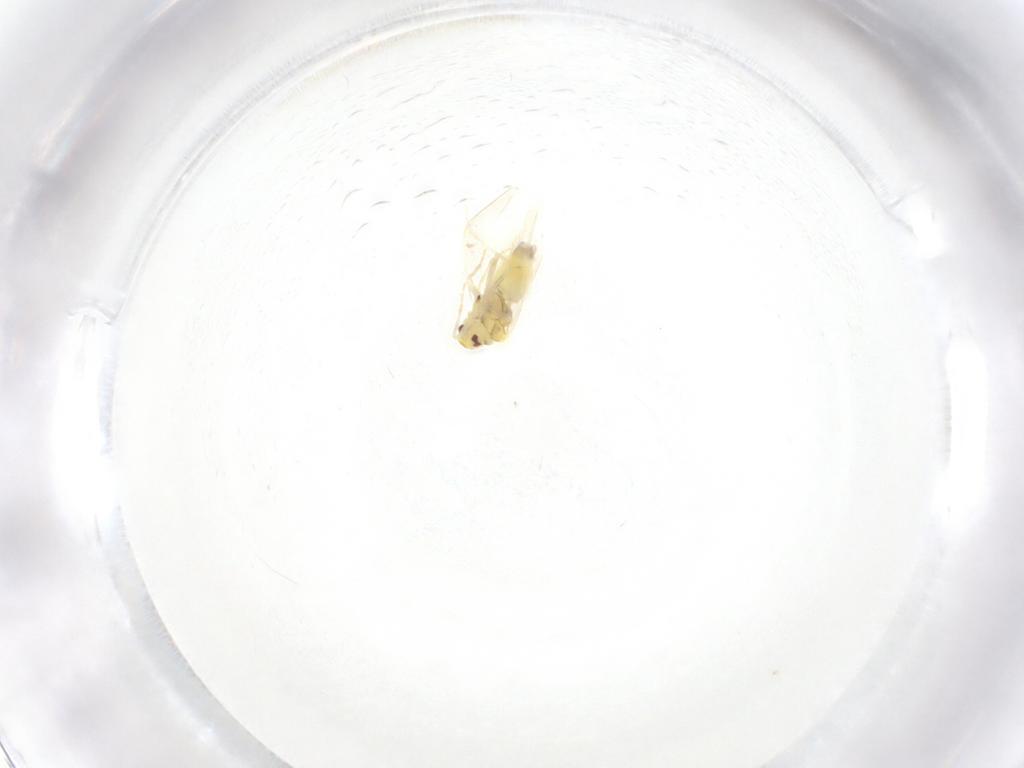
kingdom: Animalia
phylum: Arthropoda
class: Insecta
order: Hemiptera
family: Aleyrodidae
